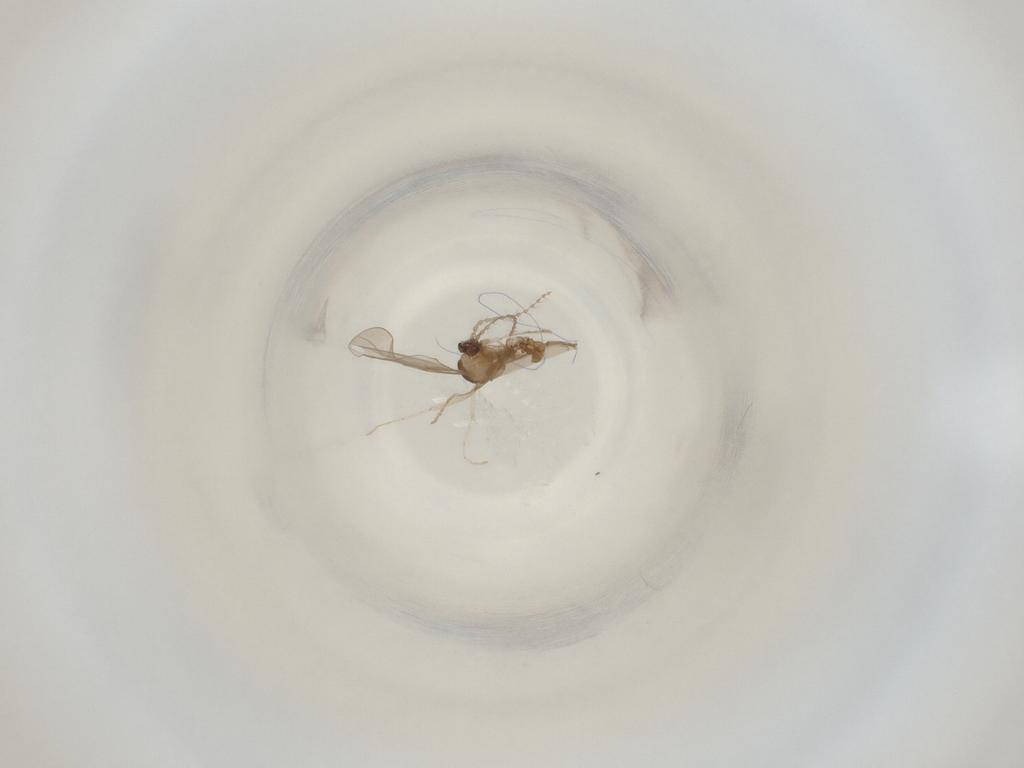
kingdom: Animalia
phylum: Arthropoda
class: Insecta
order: Diptera
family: Cecidomyiidae
